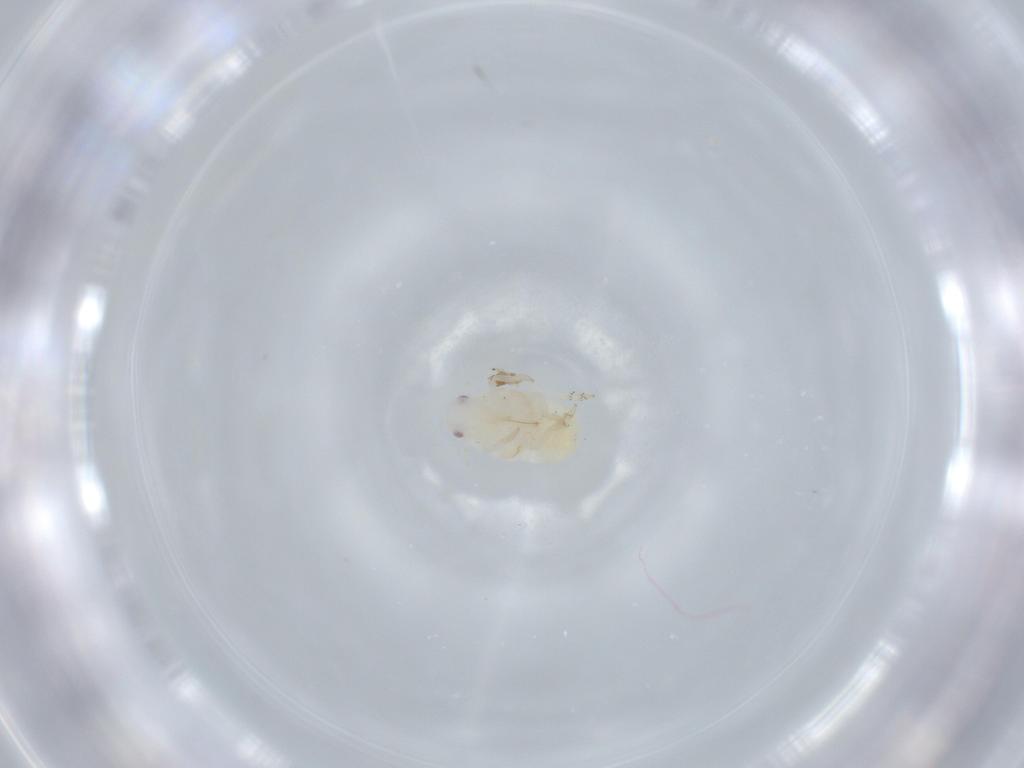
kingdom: Animalia
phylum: Arthropoda
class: Insecta
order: Hemiptera
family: Flatidae
